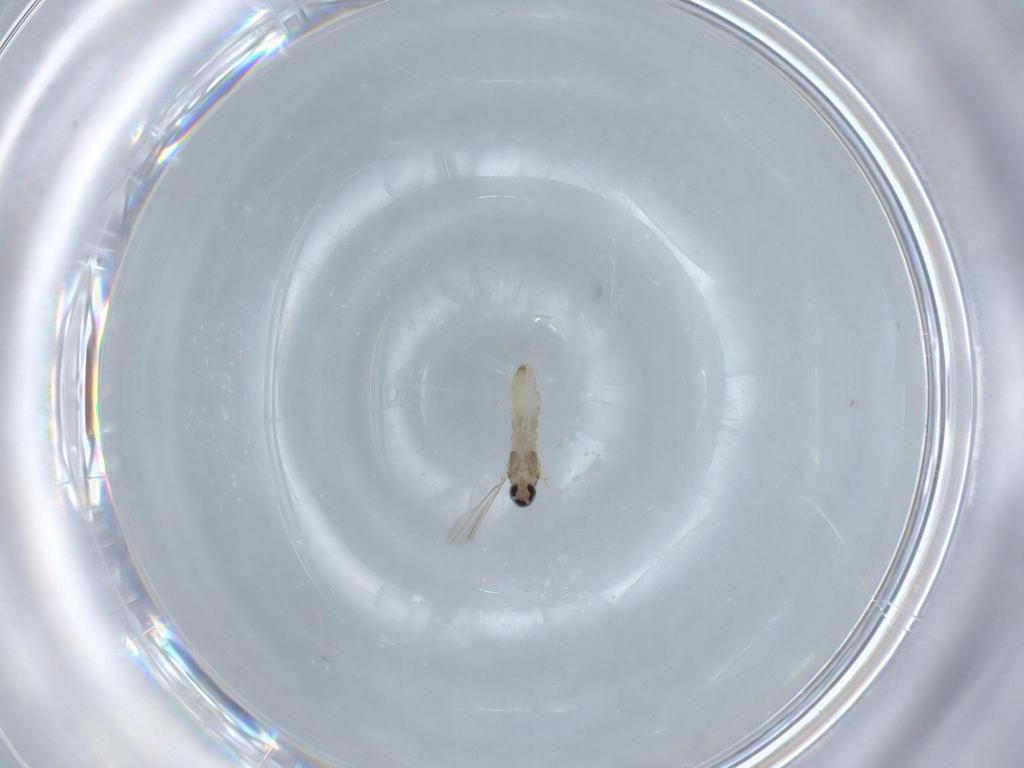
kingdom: Animalia
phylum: Arthropoda
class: Insecta
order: Diptera
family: Cecidomyiidae
